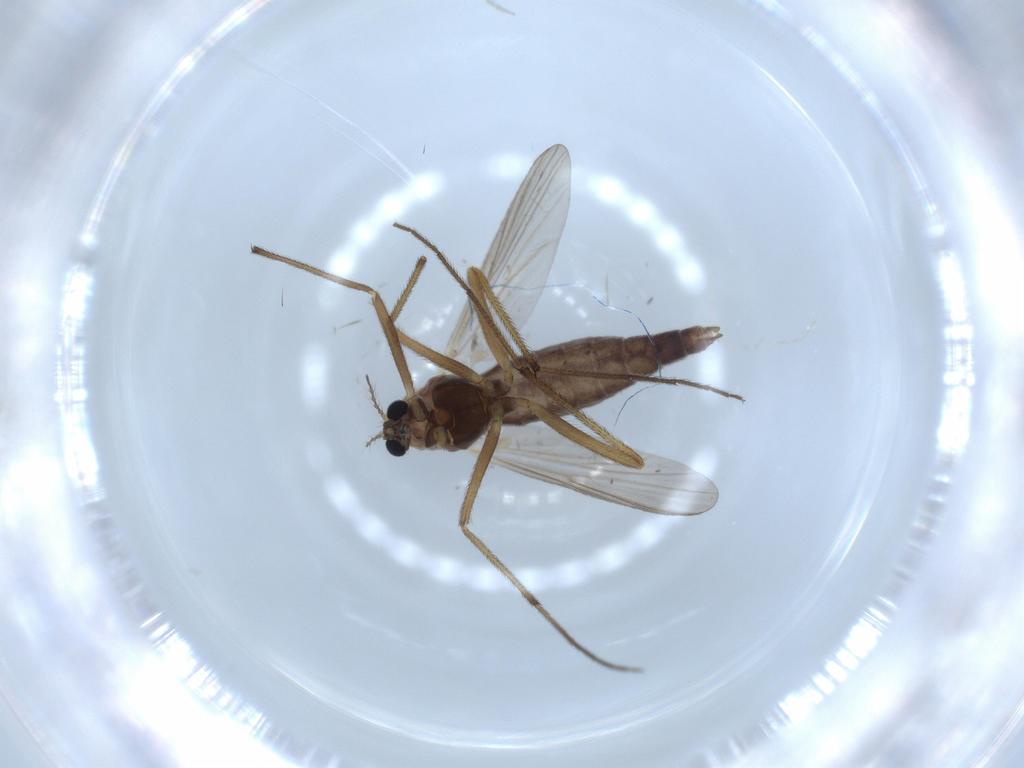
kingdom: Animalia
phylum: Arthropoda
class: Insecta
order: Diptera
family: Chironomidae
